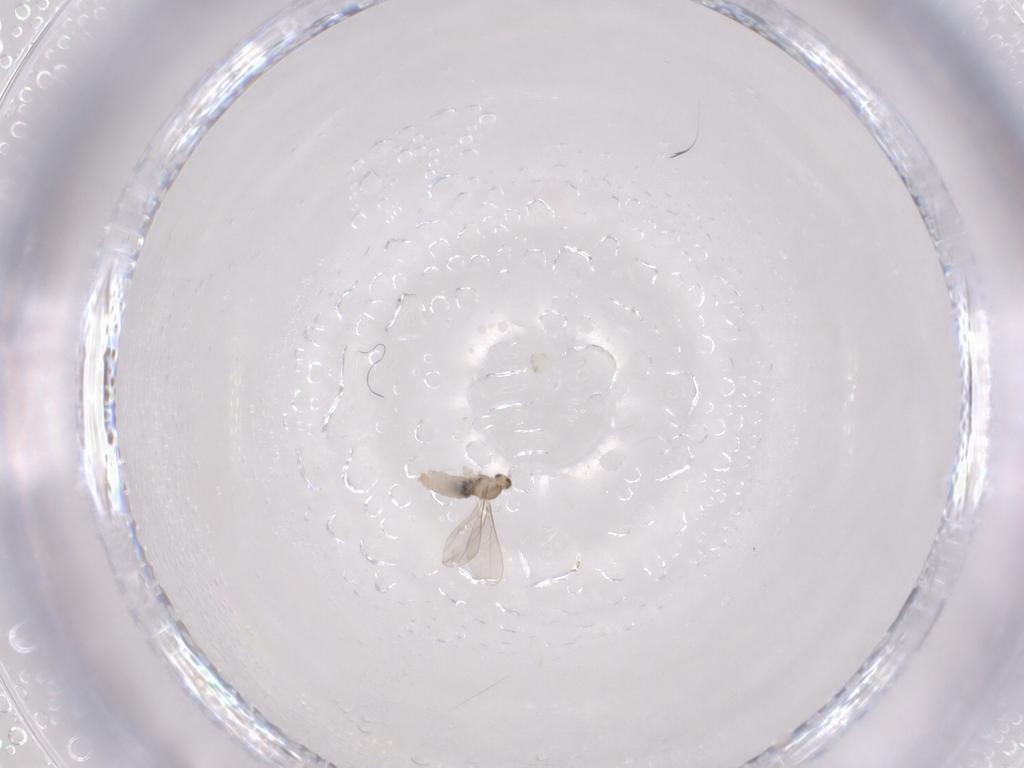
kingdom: Animalia
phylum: Arthropoda
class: Insecta
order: Diptera
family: Cecidomyiidae
